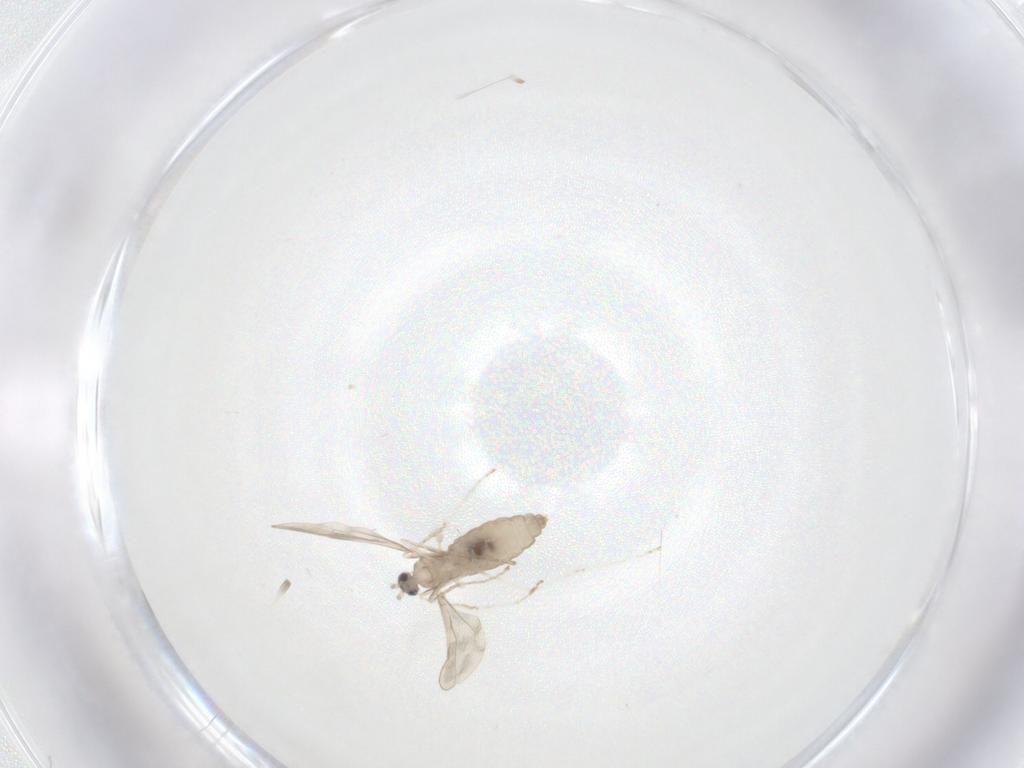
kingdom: Animalia
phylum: Arthropoda
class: Insecta
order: Diptera
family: Cecidomyiidae
